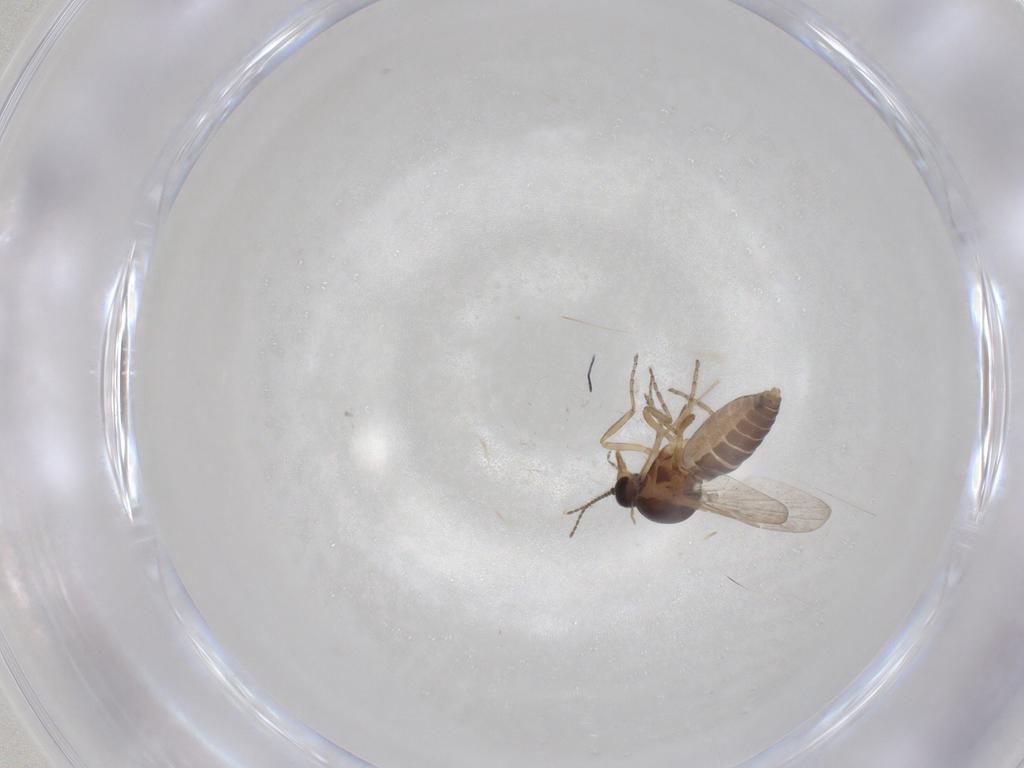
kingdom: Animalia
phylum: Arthropoda
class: Insecta
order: Diptera
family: Ceratopogonidae
